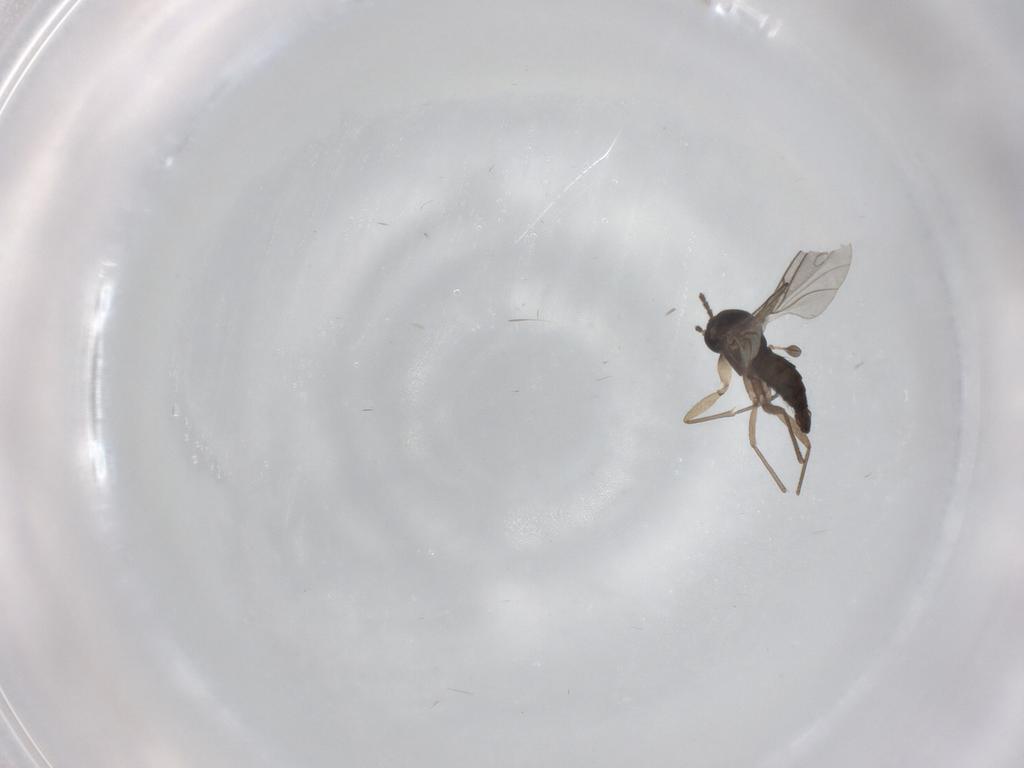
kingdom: Animalia
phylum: Arthropoda
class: Insecta
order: Diptera
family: Sciaridae
